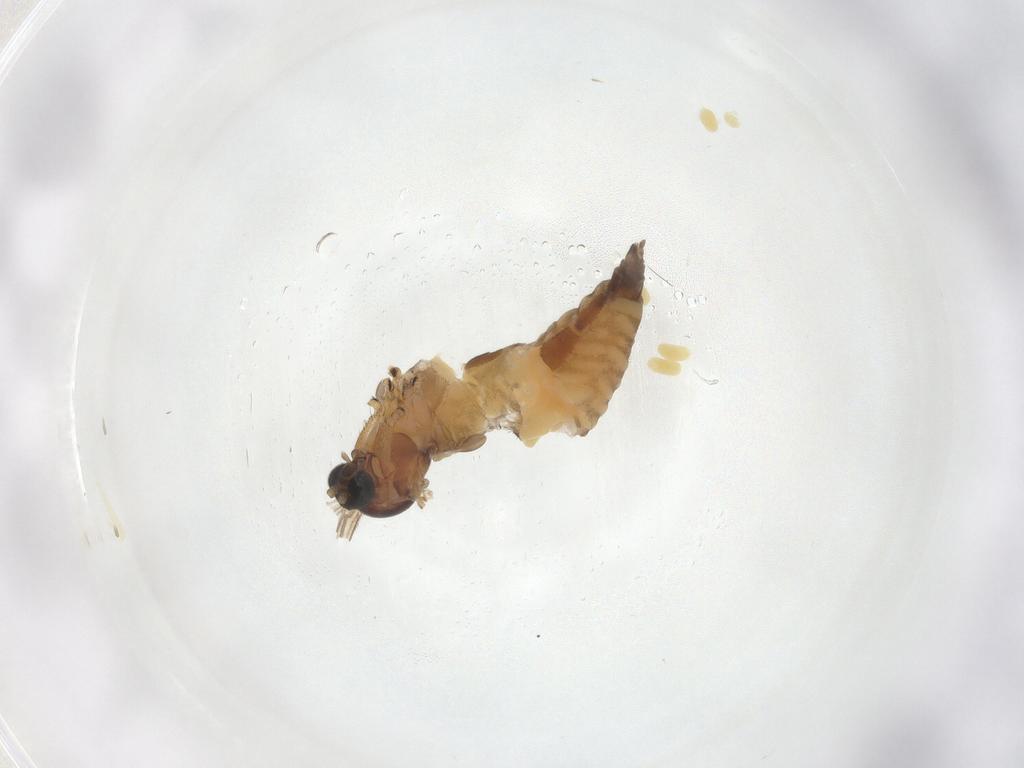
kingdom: Animalia
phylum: Arthropoda
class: Insecta
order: Diptera
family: Sciaridae
